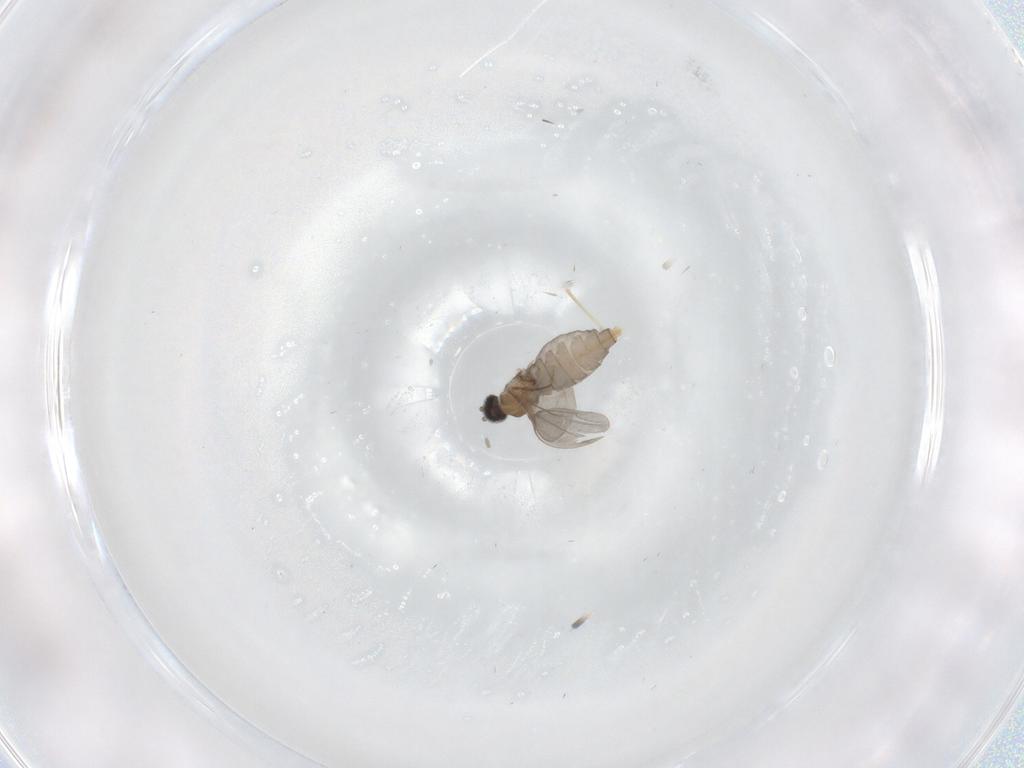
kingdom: Animalia
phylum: Arthropoda
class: Insecta
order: Diptera
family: Cecidomyiidae
